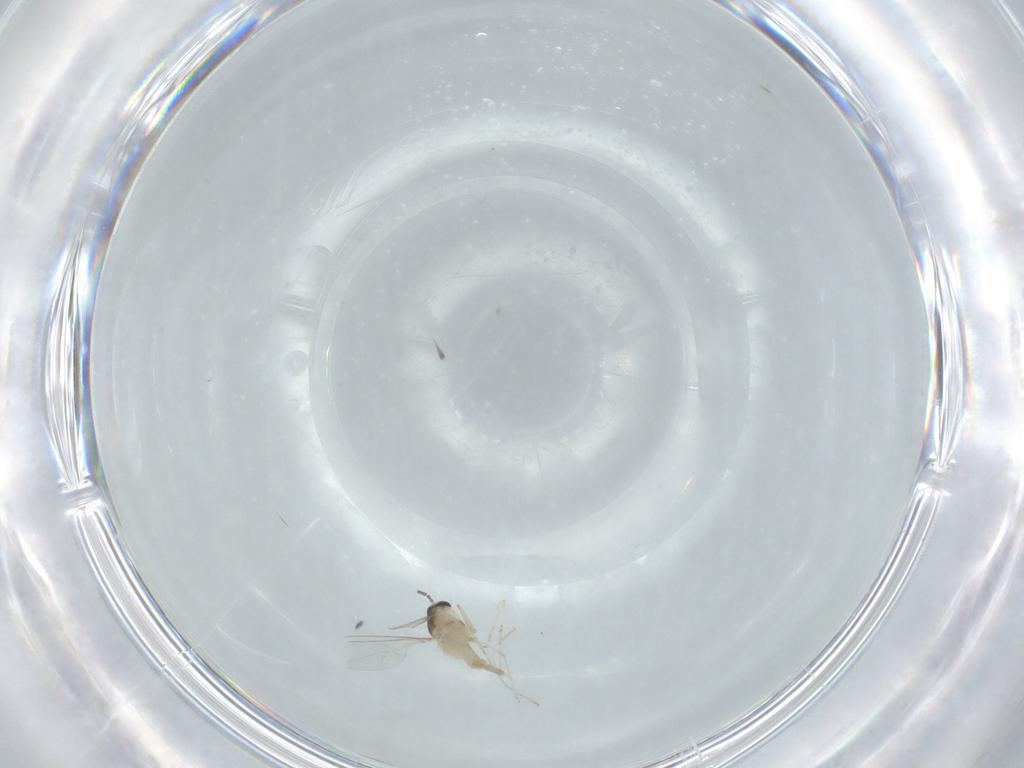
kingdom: Animalia
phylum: Arthropoda
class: Insecta
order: Diptera
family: Cecidomyiidae
